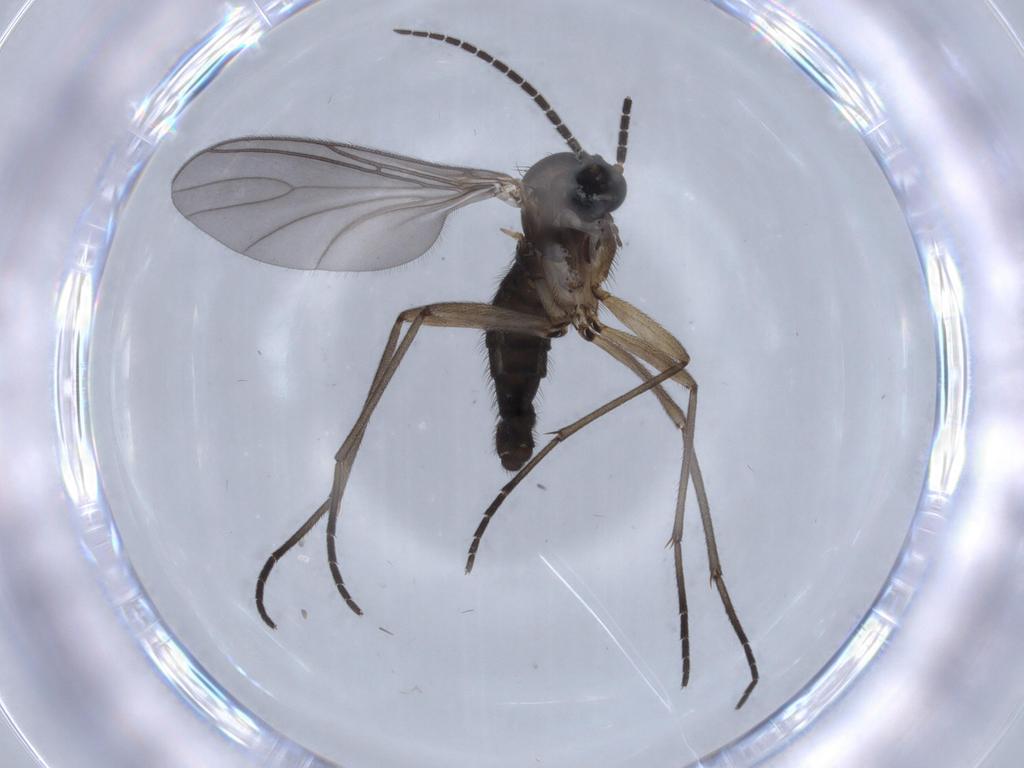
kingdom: Animalia
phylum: Arthropoda
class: Insecta
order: Diptera
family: Sciaridae
